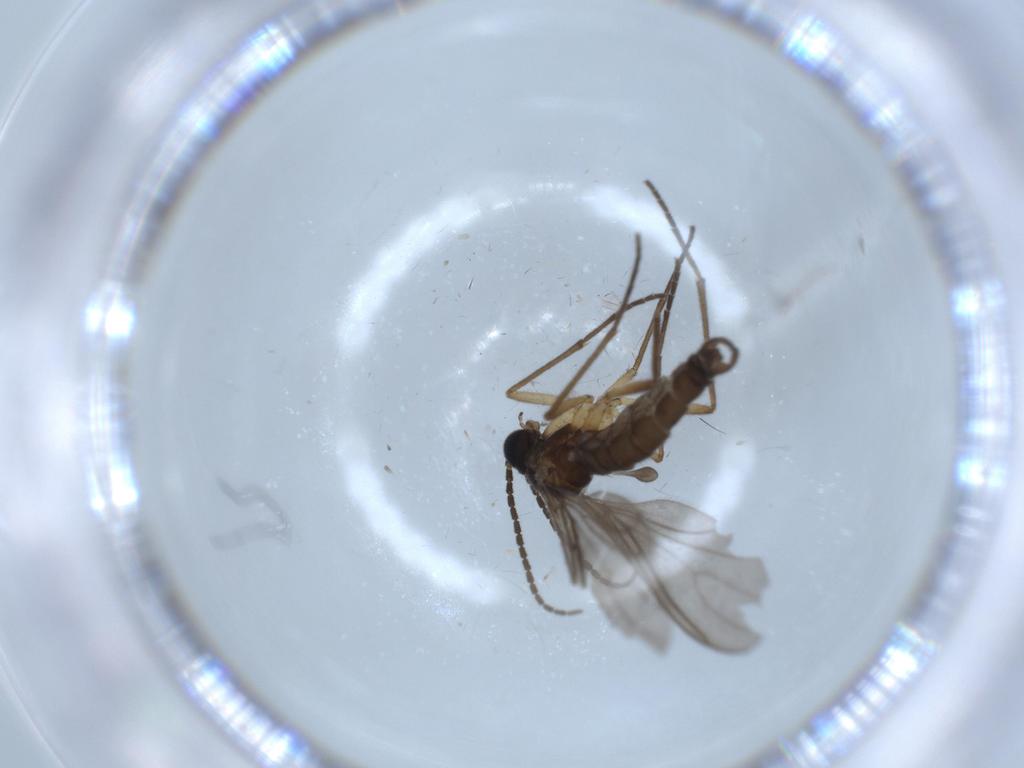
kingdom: Animalia
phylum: Arthropoda
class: Insecta
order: Diptera
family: Sciaridae
